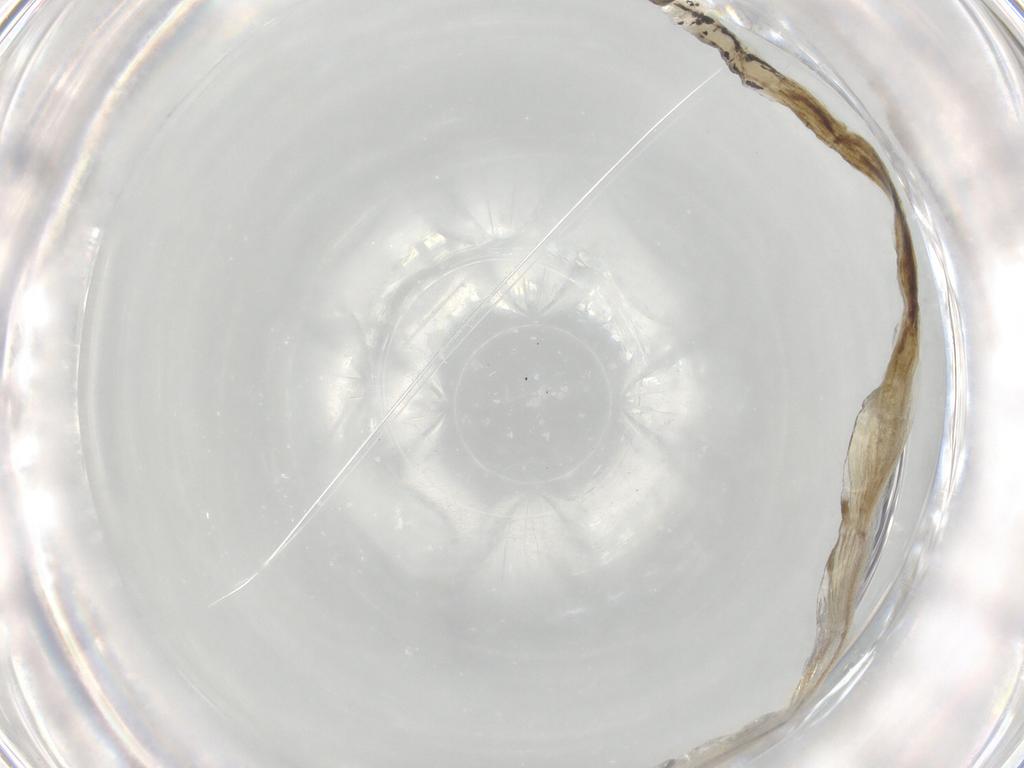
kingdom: Animalia
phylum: Arthropoda
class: Insecta
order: Diptera
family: Ceratopogonidae
